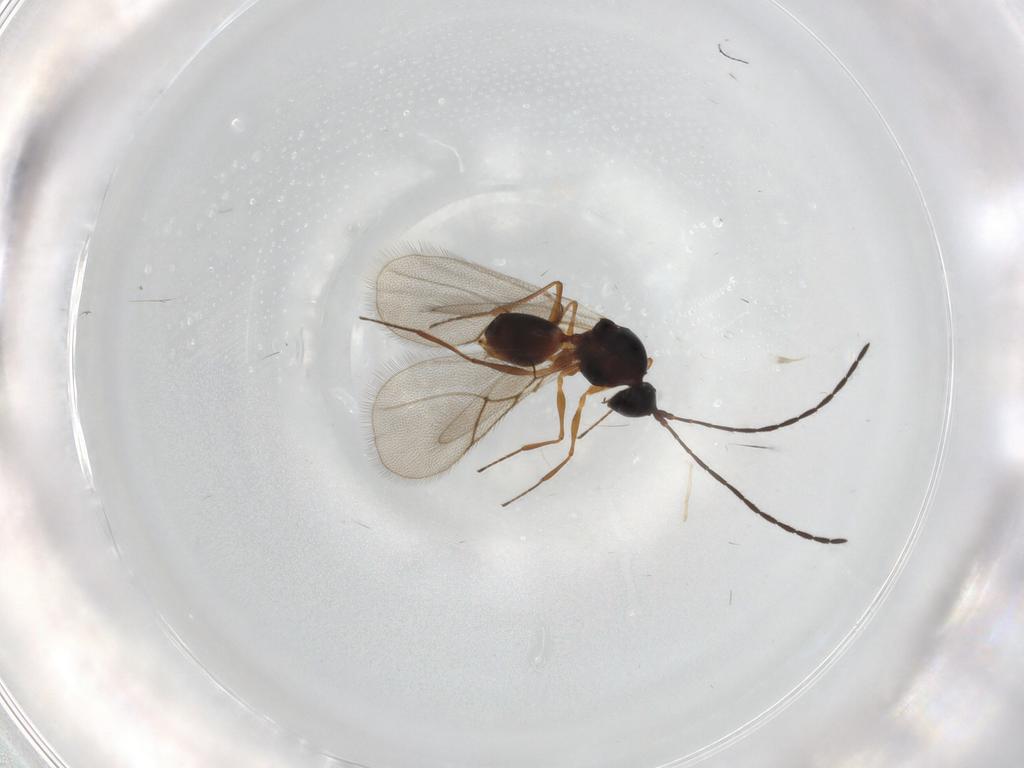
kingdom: Animalia
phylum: Arthropoda
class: Insecta
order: Hymenoptera
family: Figitidae
